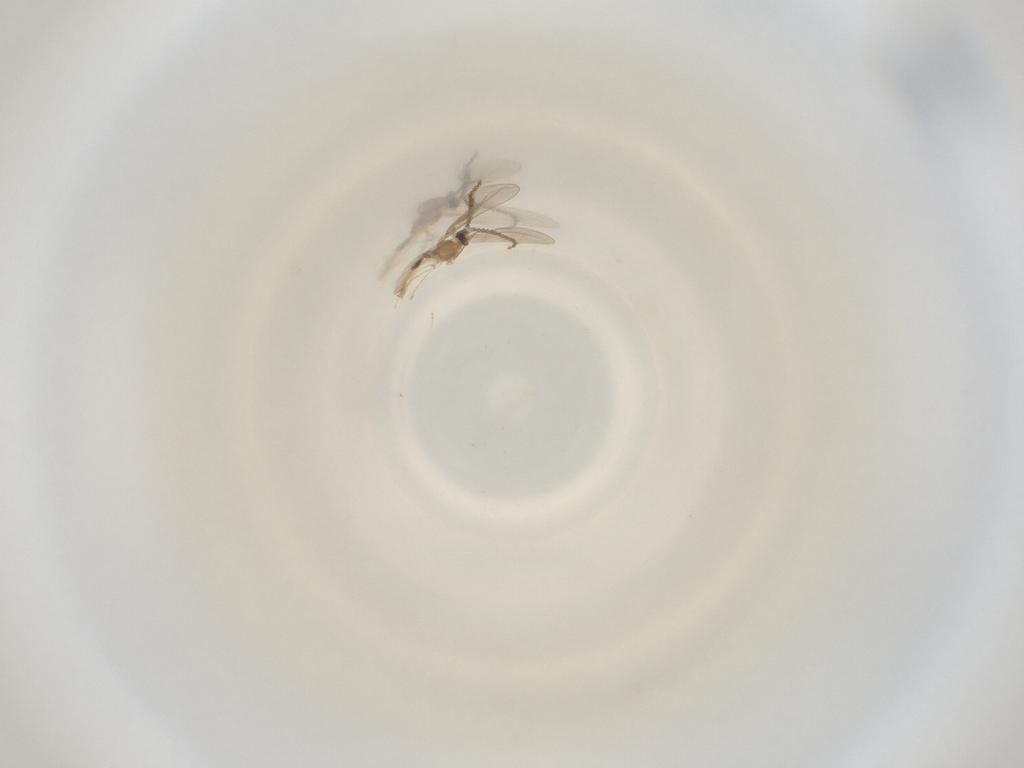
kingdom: Animalia
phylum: Arthropoda
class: Insecta
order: Diptera
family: Cecidomyiidae
